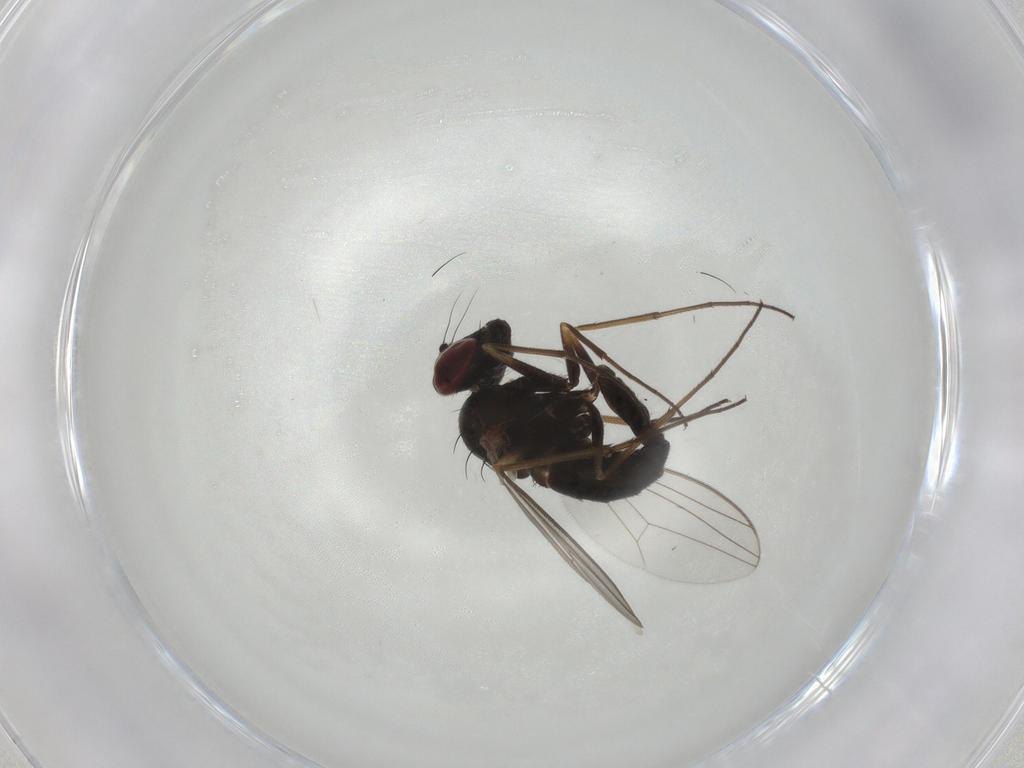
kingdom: Animalia
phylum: Arthropoda
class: Insecta
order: Diptera
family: Dolichopodidae
